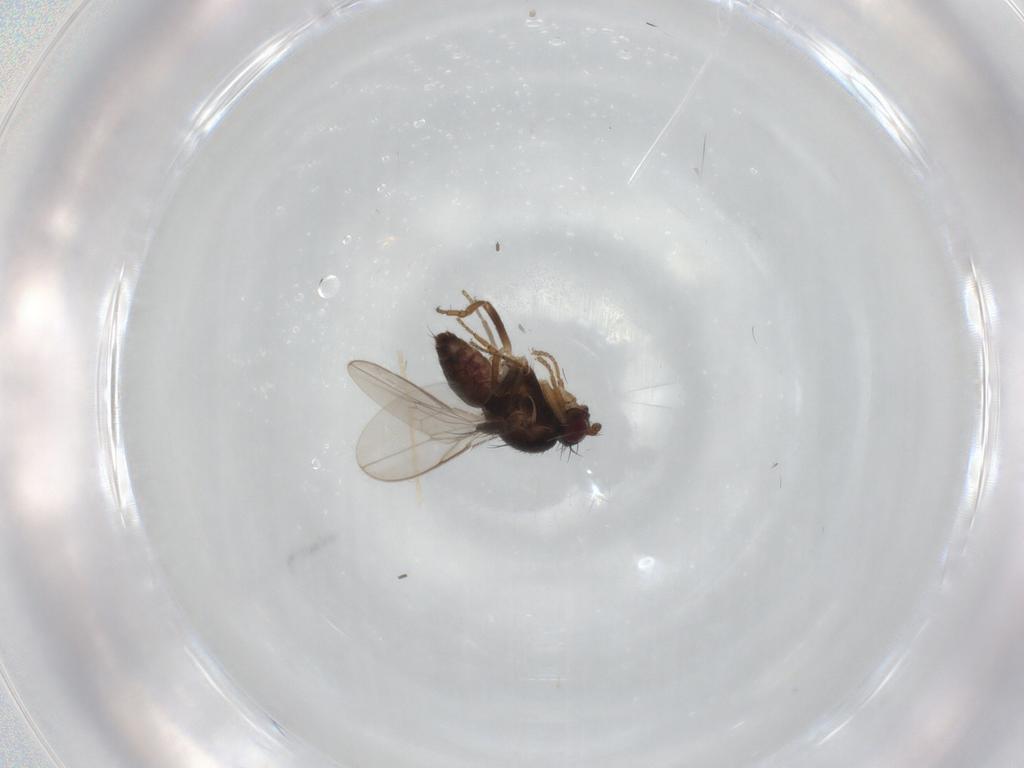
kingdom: Animalia
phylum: Arthropoda
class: Insecta
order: Diptera
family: Sphaeroceridae
